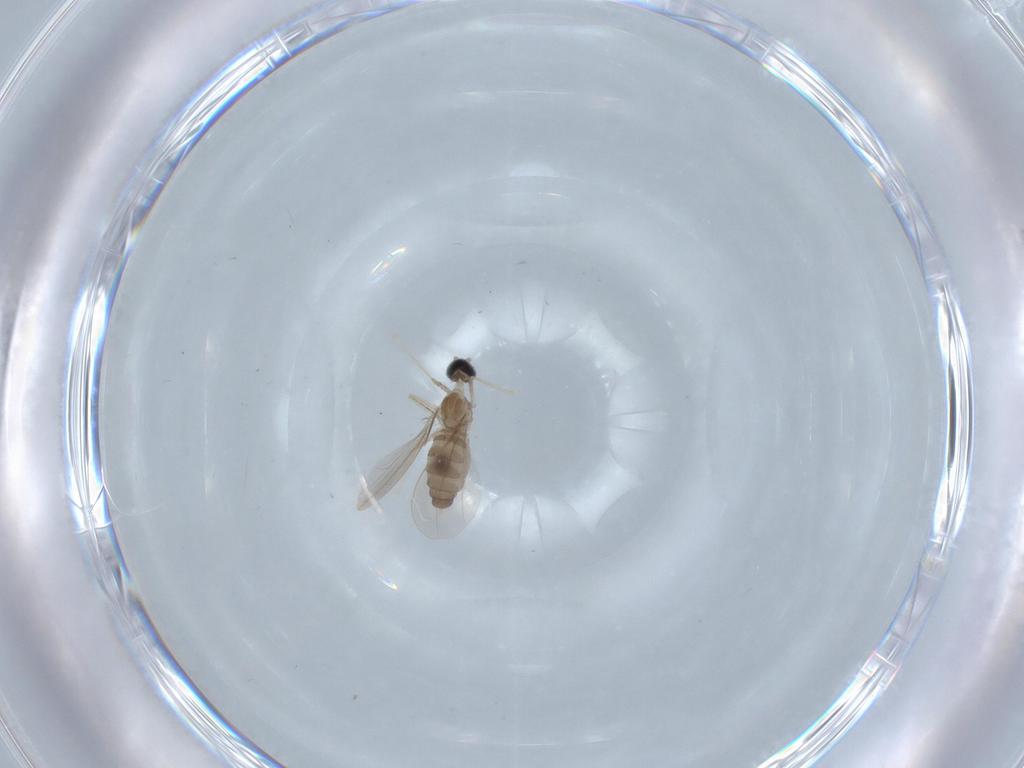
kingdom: Animalia
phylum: Arthropoda
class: Insecta
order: Diptera
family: Cecidomyiidae
